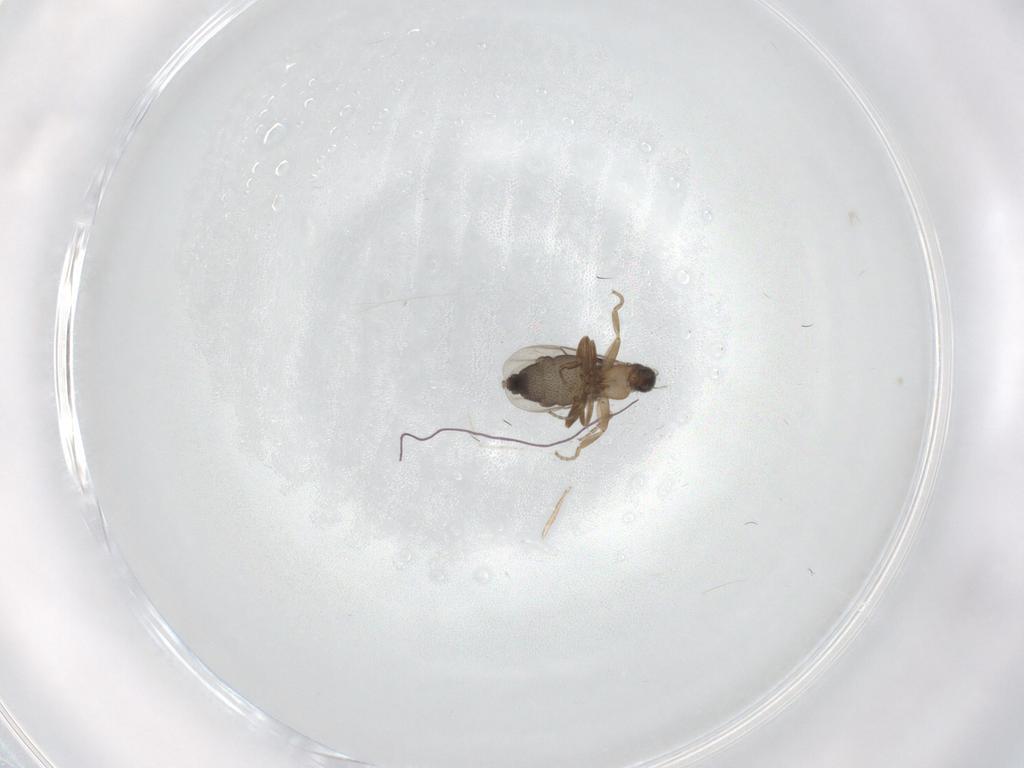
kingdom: Animalia
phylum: Arthropoda
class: Insecta
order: Diptera
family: Cecidomyiidae
